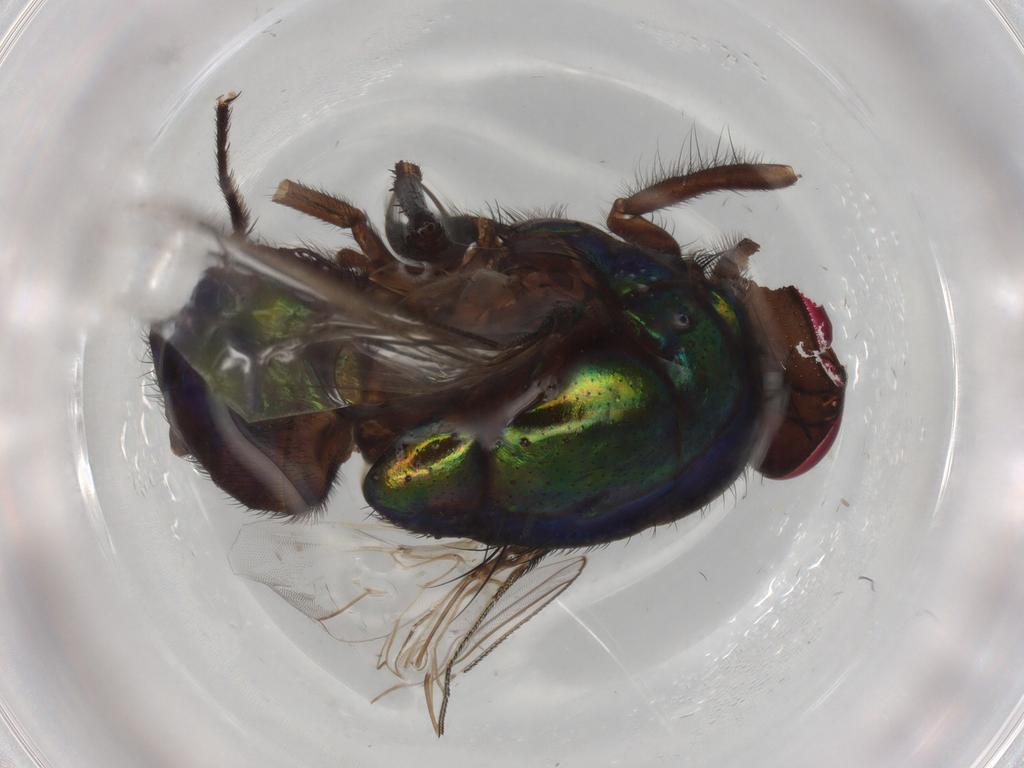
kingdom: Animalia
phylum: Arthropoda
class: Insecta
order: Diptera
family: Muscidae
